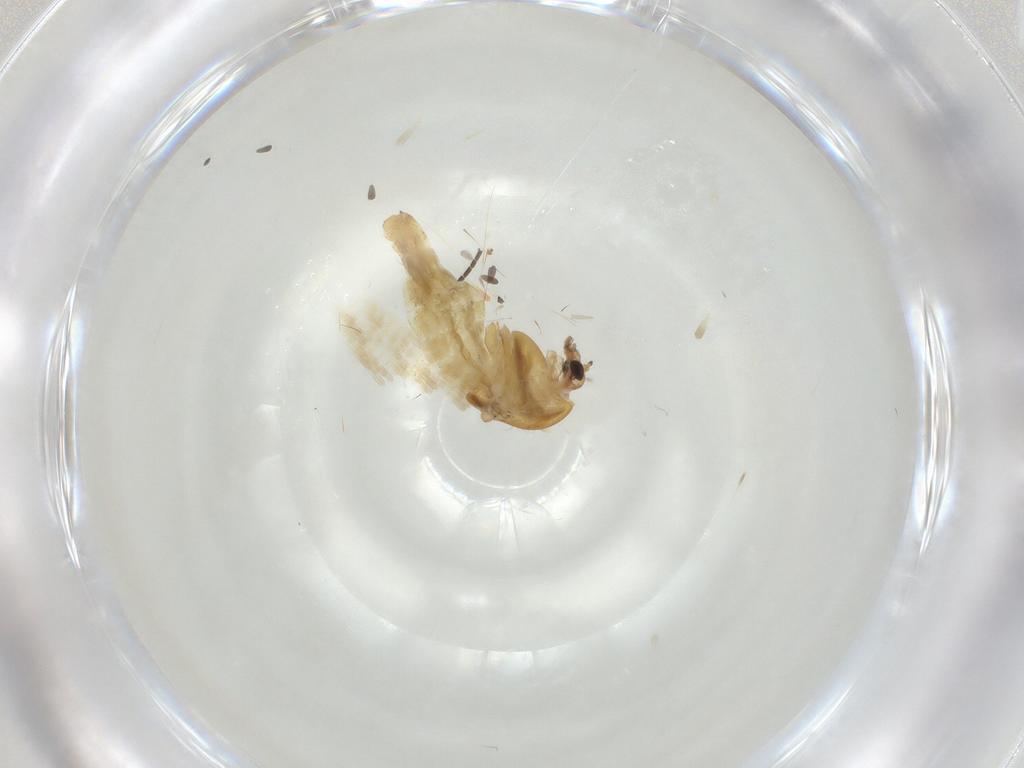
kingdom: Animalia
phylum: Arthropoda
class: Insecta
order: Diptera
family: Chironomidae
